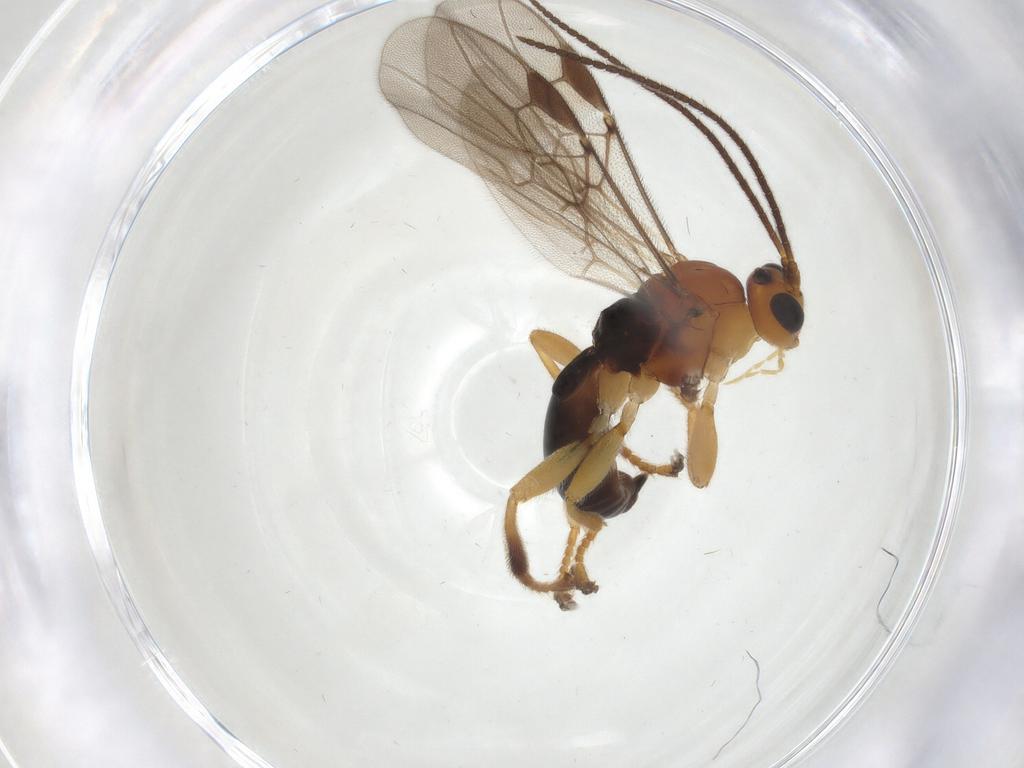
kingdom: Animalia
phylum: Arthropoda
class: Insecta
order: Hymenoptera
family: Braconidae
